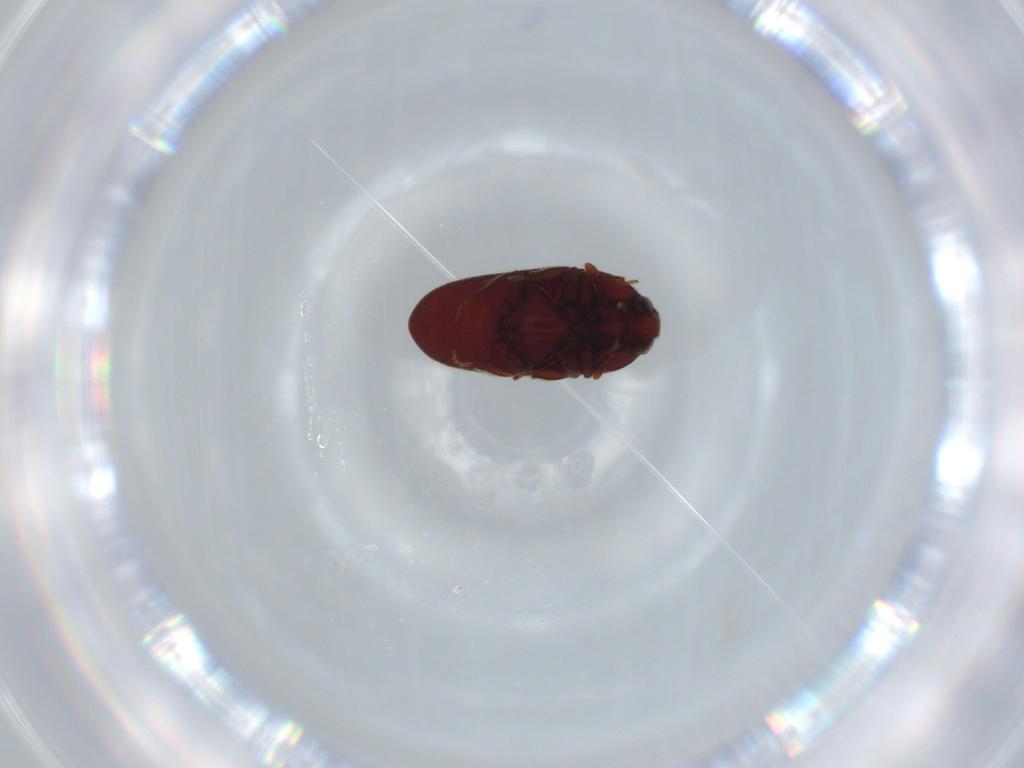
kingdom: Animalia
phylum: Arthropoda
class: Insecta
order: Coleoptera
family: Throscidae
